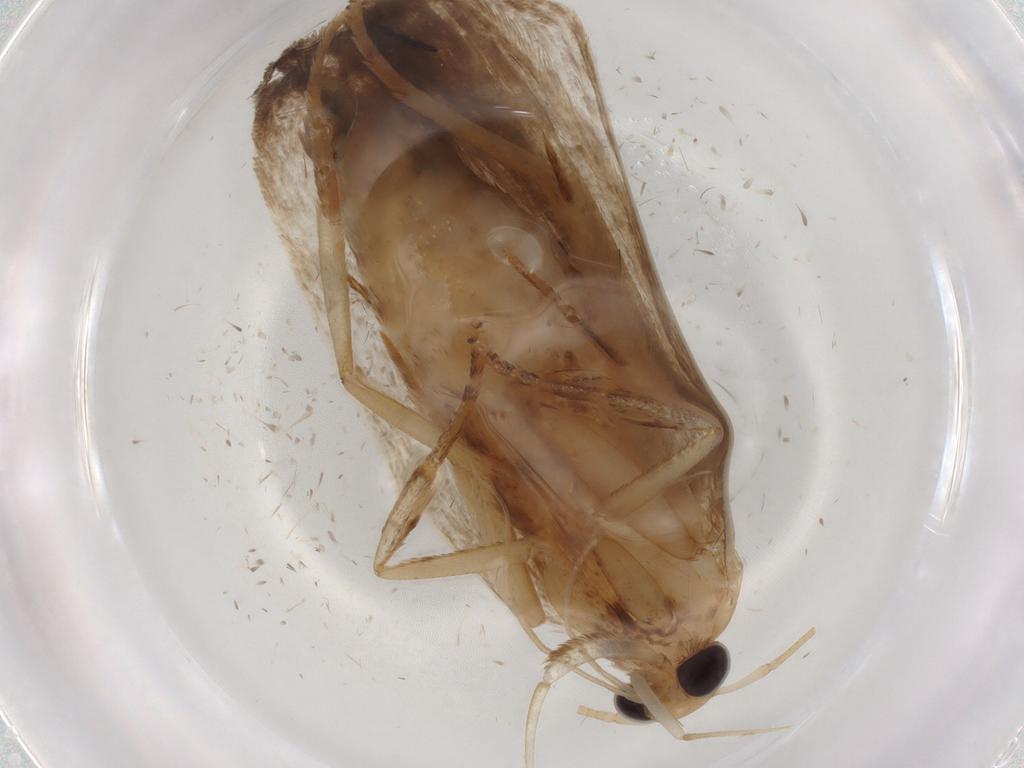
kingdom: Animalia
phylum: Arthropoda
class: Insecta
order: Lepidoptera
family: Autostichidae
